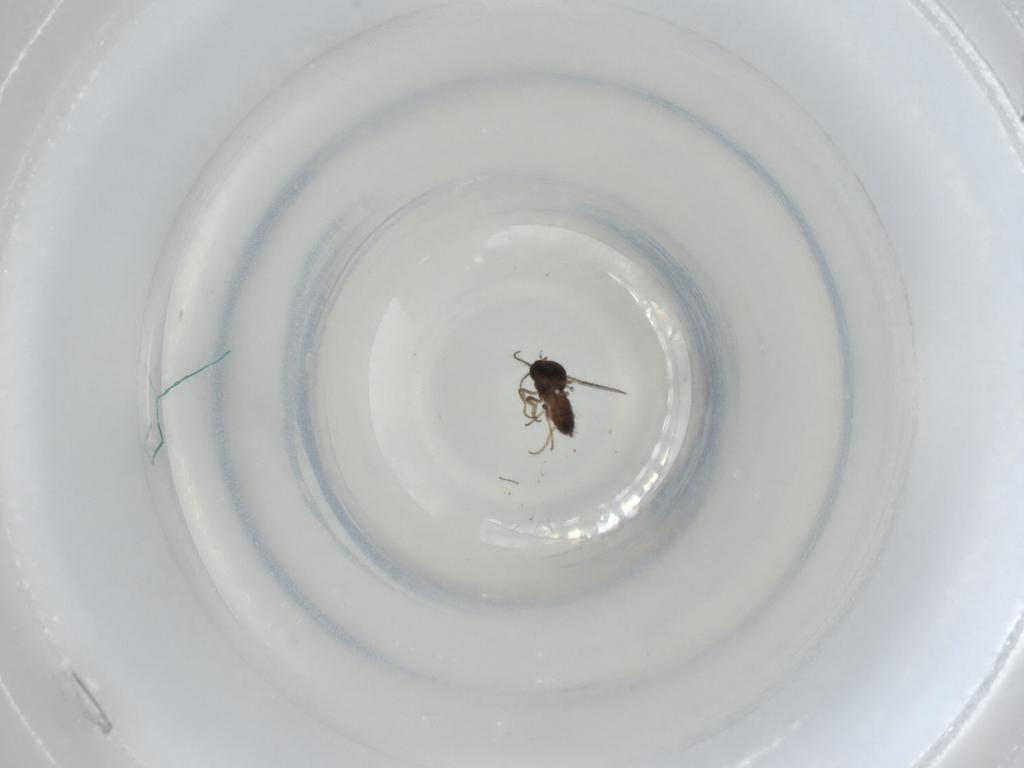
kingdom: Animalia
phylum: Arthropoda
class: Insecta
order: Diptera
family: Ceratopogonidae
